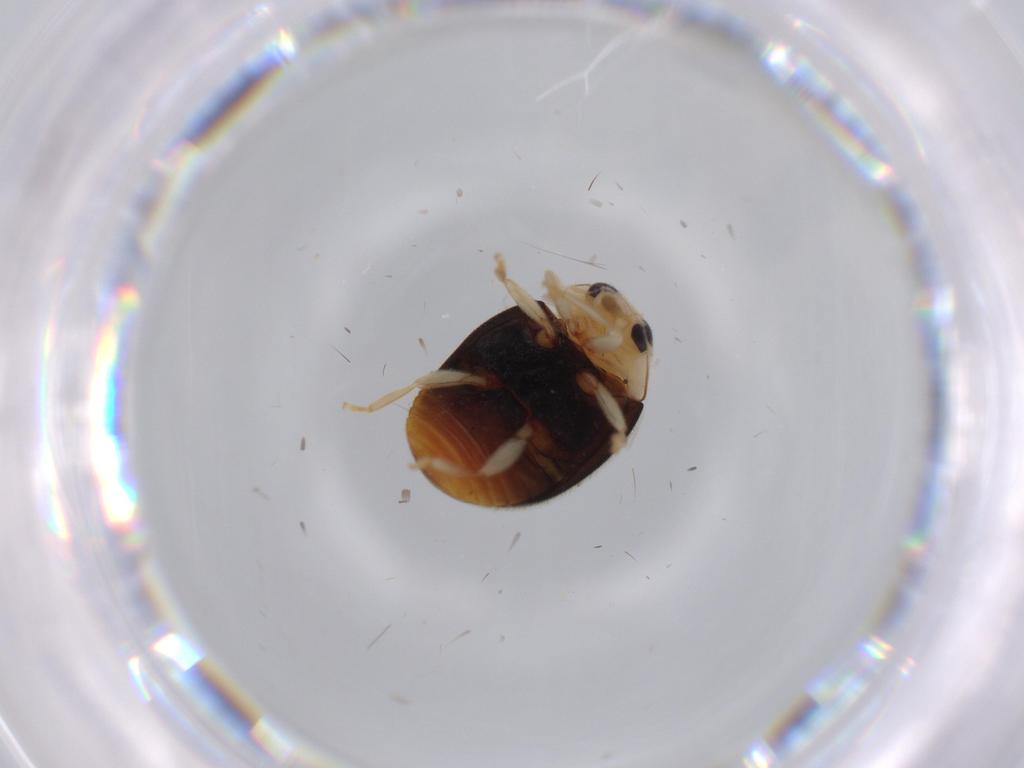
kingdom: Animalia
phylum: Arthropoda
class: Insecta
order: Coleoptera
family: Coccinellidae
